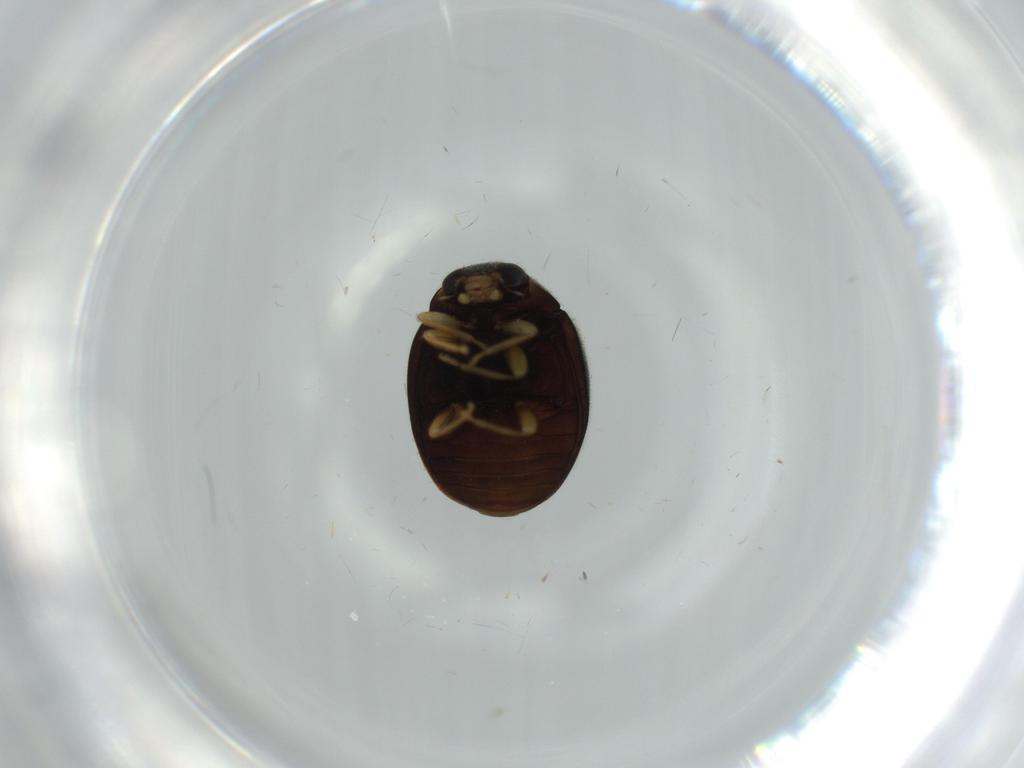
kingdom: Animalia
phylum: Arthropoda
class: Insecta
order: Coleoptera
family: Coccinellidae
